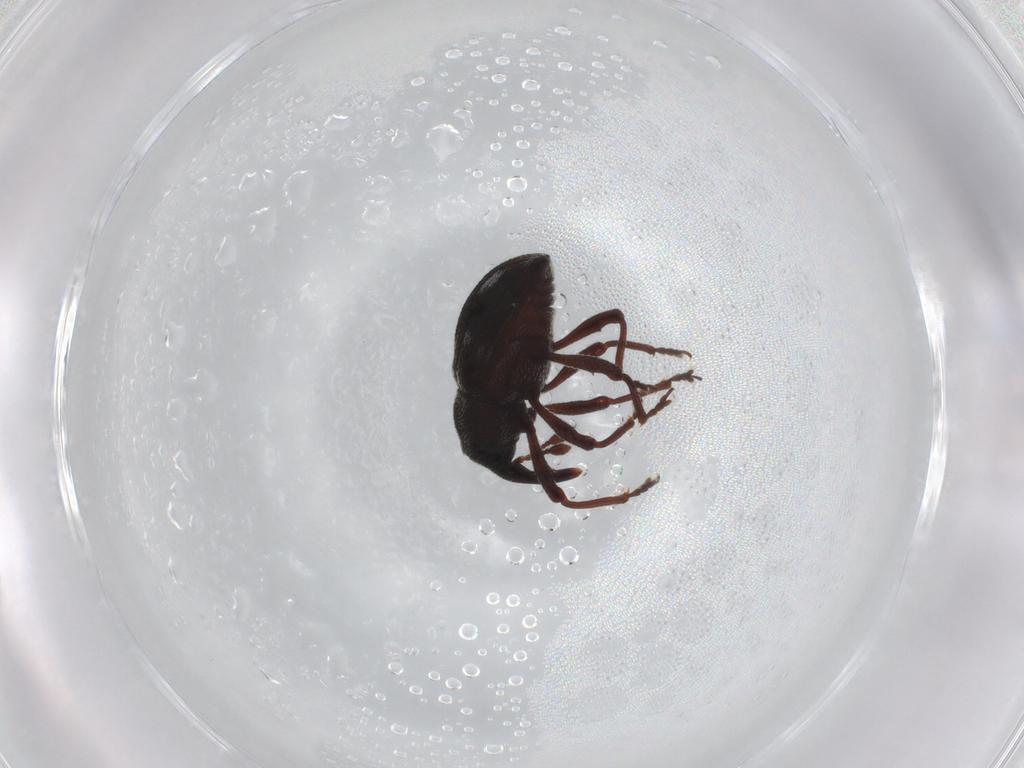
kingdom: Animalia
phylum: Arthropoda
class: Insecta
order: Coleoptera
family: Curculionidae
